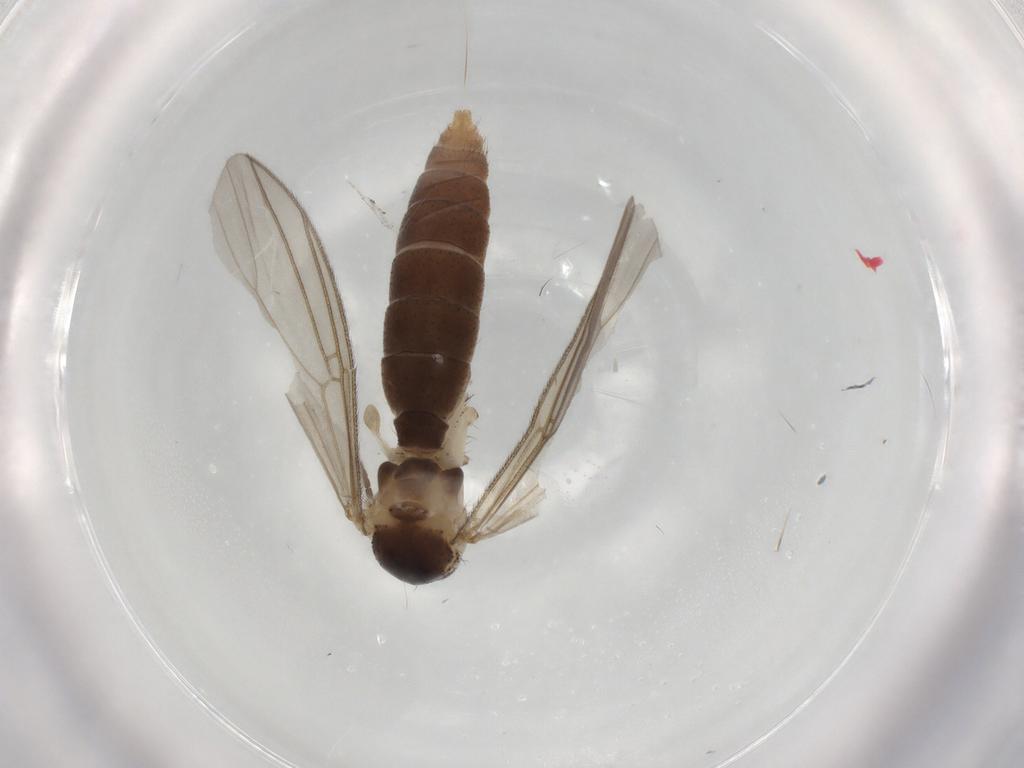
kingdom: Animalia
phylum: Arthropoda
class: Insecta
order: Diptera
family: Mycetophilidae
